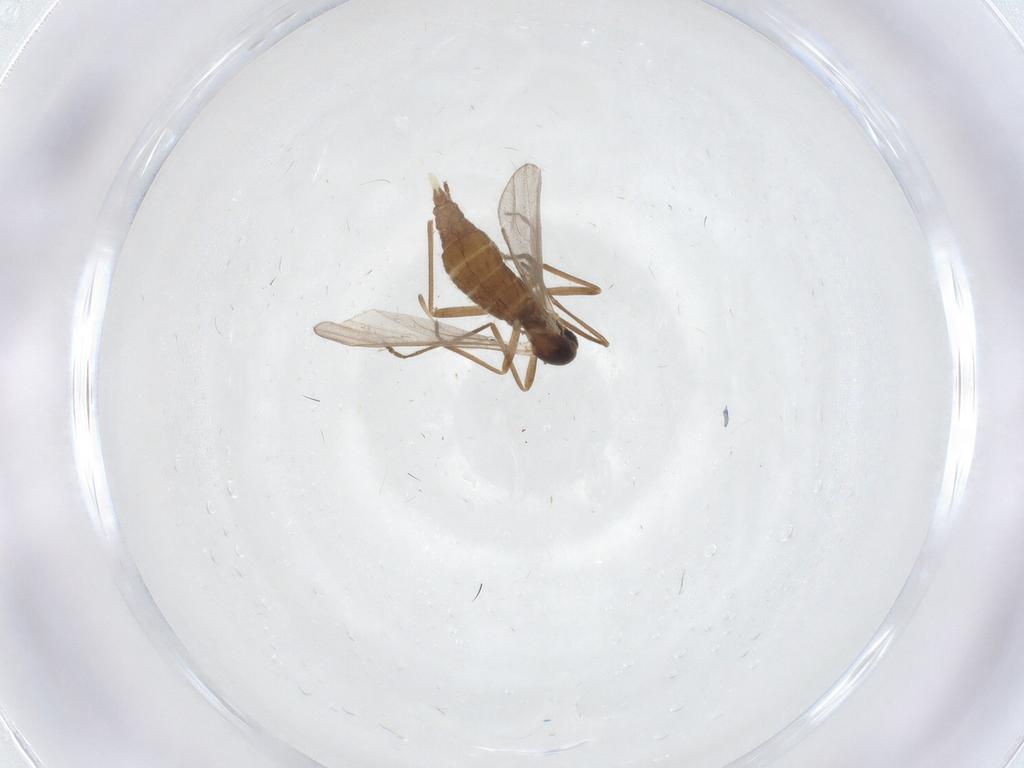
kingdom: Animalia
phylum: Arthropoda
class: Insecta
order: Diptera
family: Cecidomyiidae
